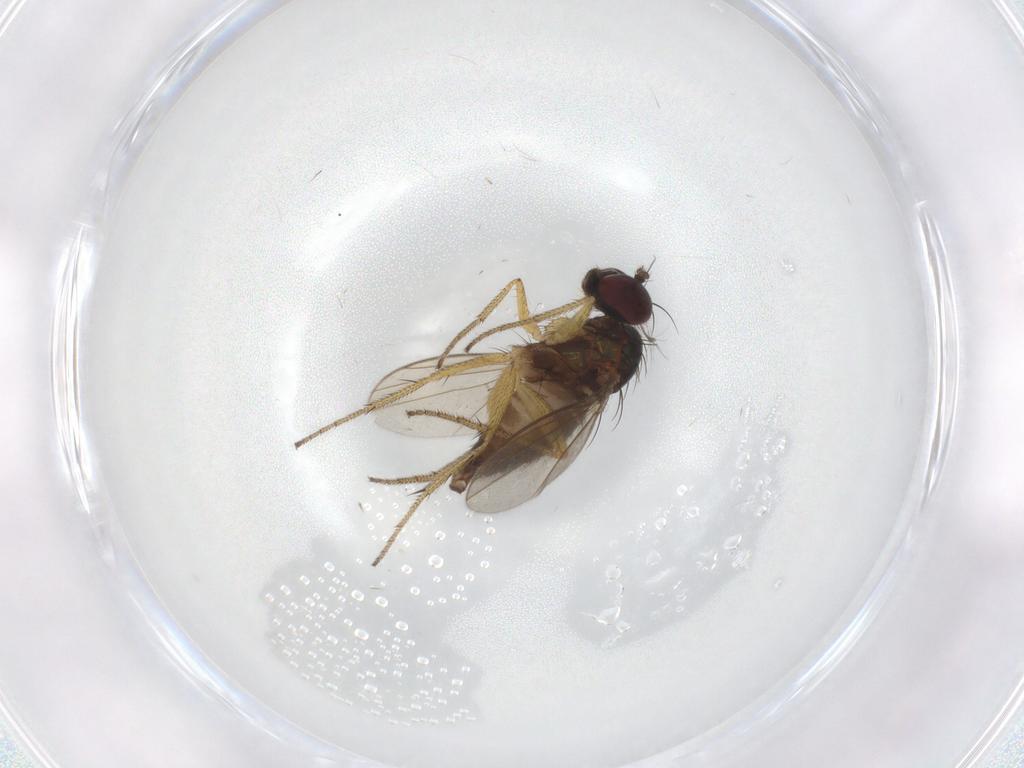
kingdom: Animalia
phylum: Arthropoda
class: Insecta
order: Diptera
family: Chironomidae
